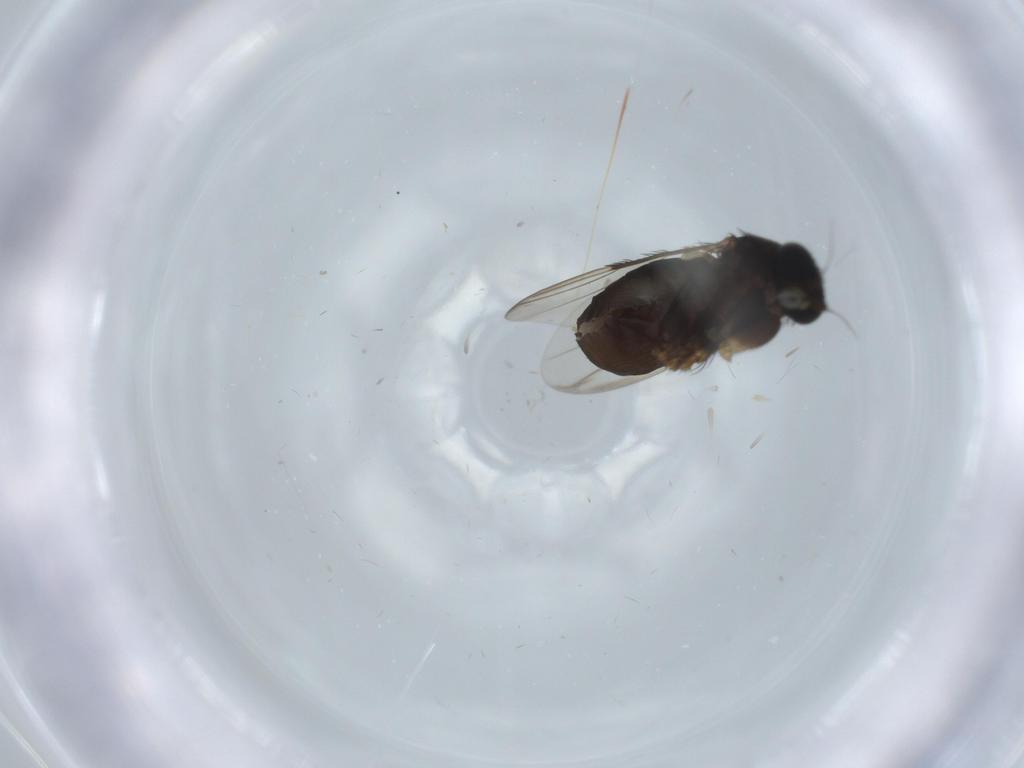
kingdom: Animalia
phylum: Arthropoda
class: Insecta
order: Diptera
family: Phoridae
